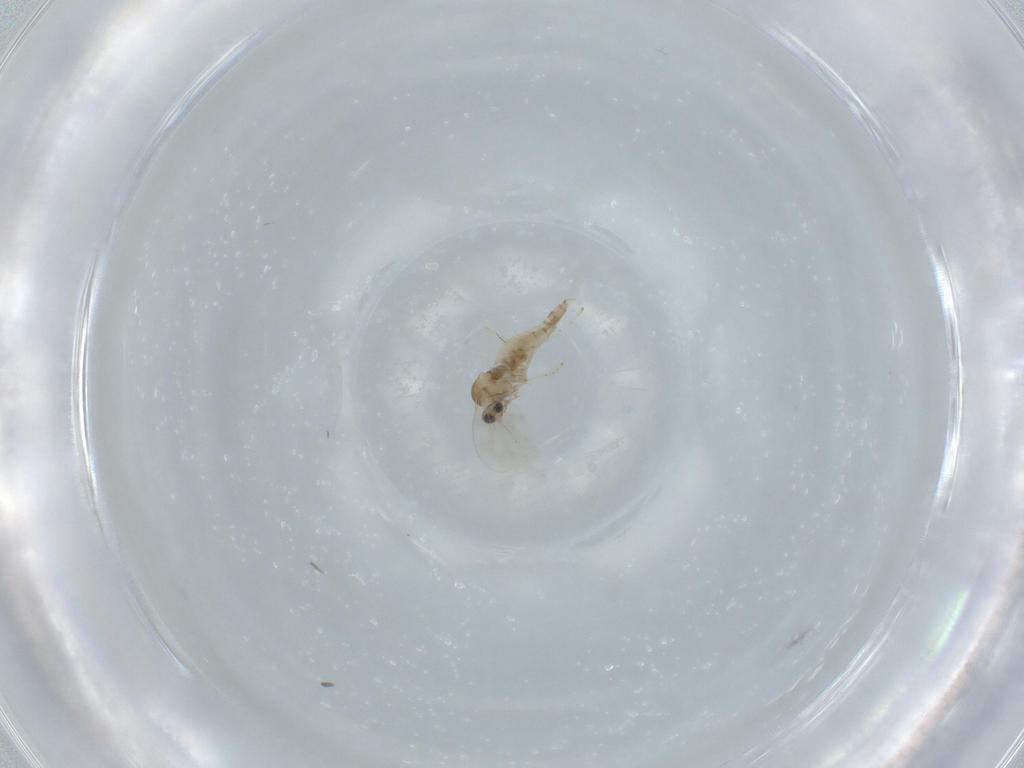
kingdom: Animalia
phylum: Arthropoda
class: Insecta
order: Diptera
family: Cecidomyiidae
